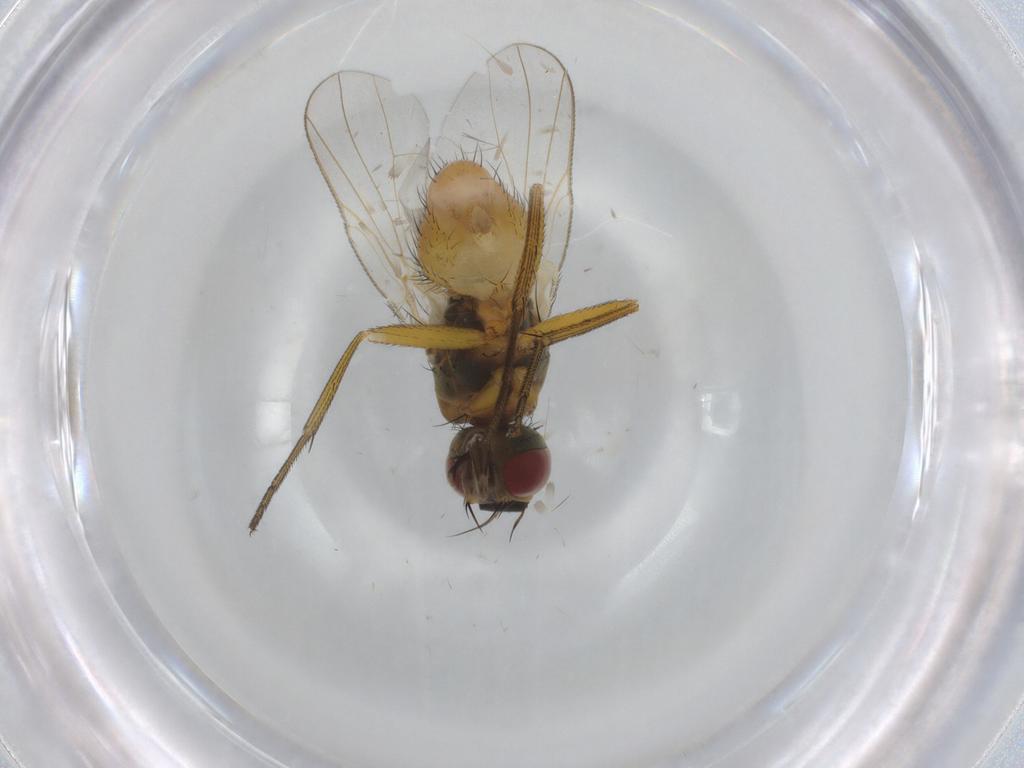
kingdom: Animalia
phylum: Arthropoda
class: Insecta
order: Diptera
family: Muscidae
